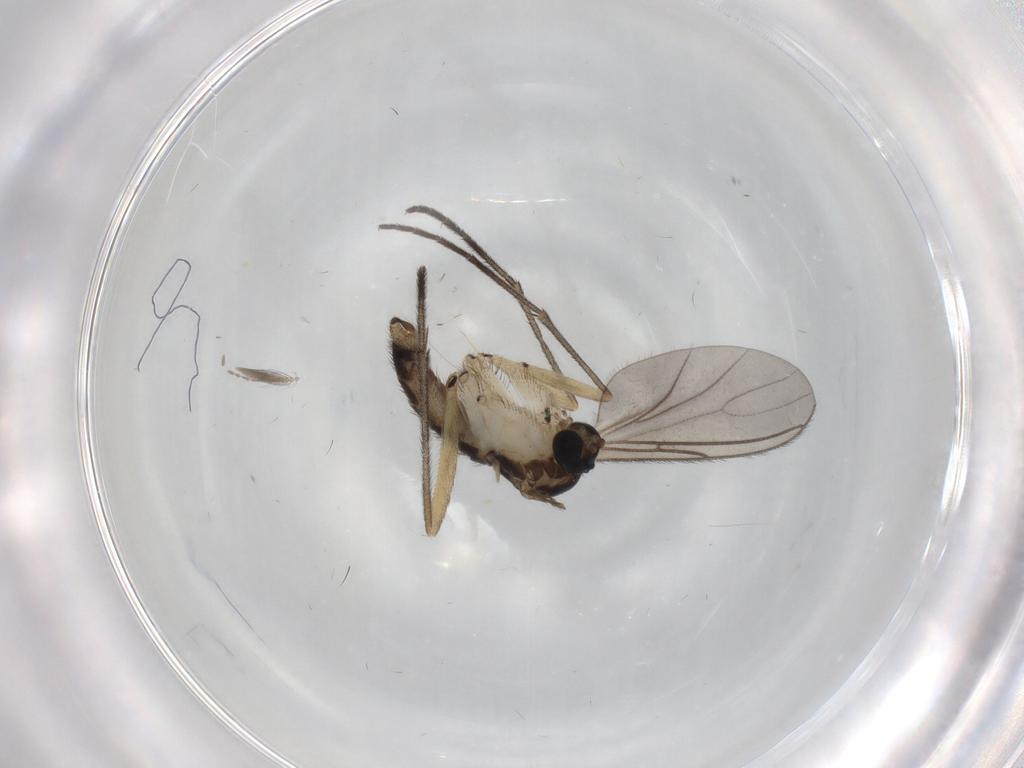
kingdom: Animalia
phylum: Arthropoda
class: Insecta
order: Diptera
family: Sciaridae
